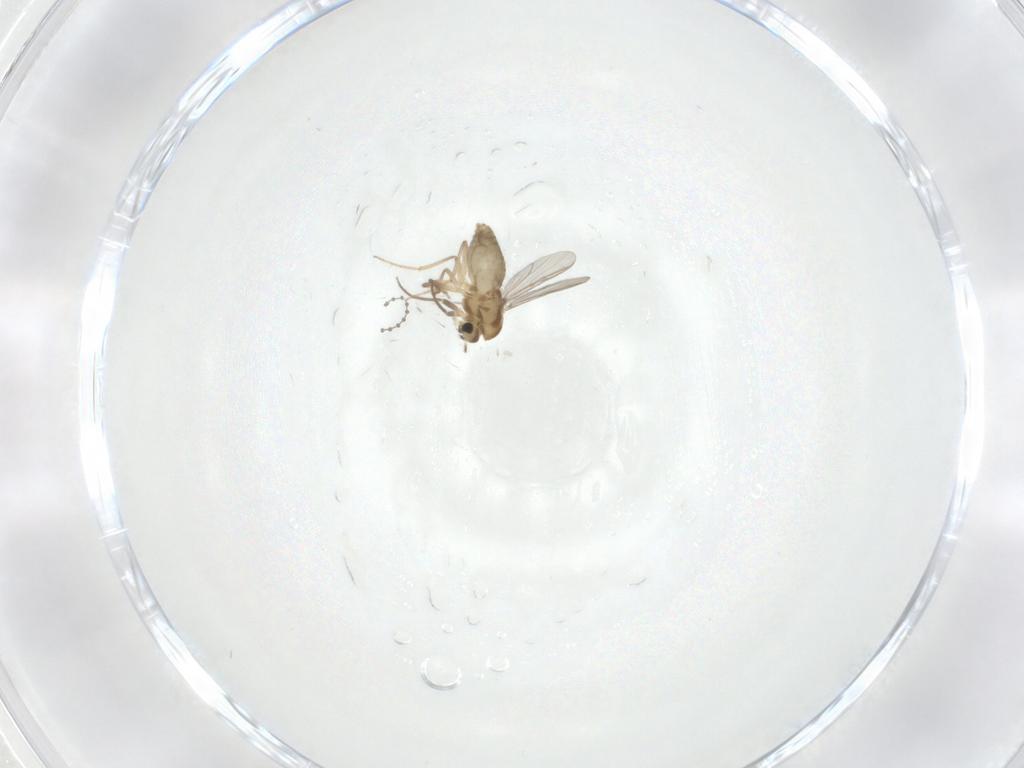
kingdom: Animalia
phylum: Arthropoda
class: Insecta
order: Diptera
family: Chironomidae
